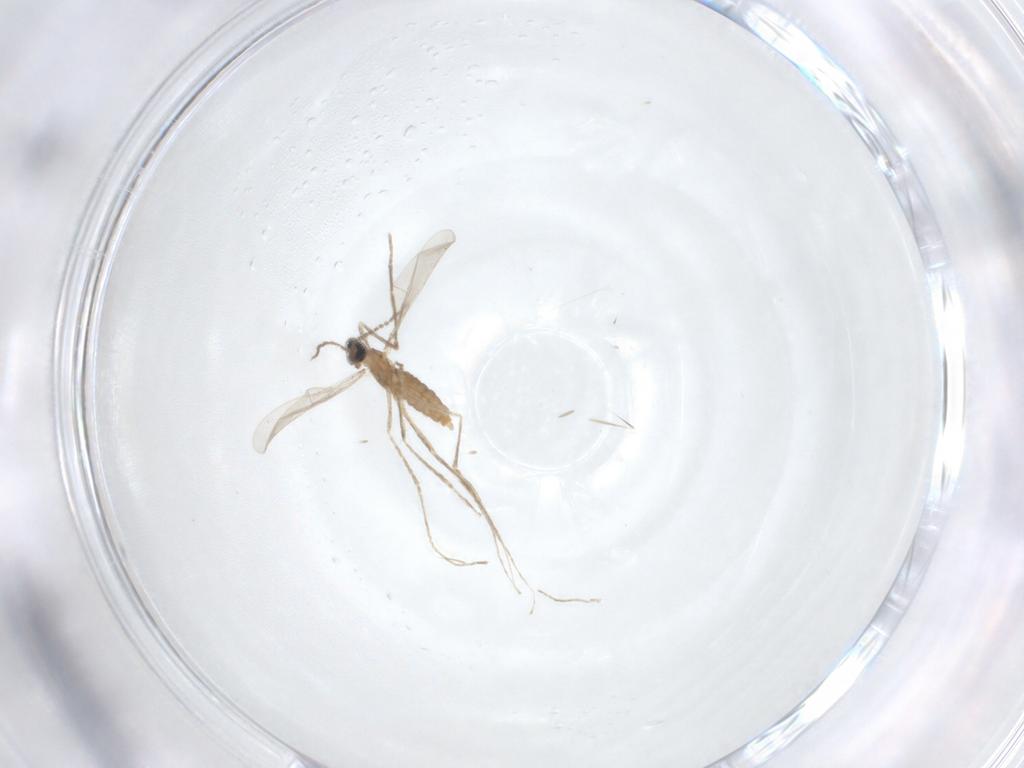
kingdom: Animalia
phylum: Arthropoda
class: Insecta
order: Diptera
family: Cecidomyiidae
